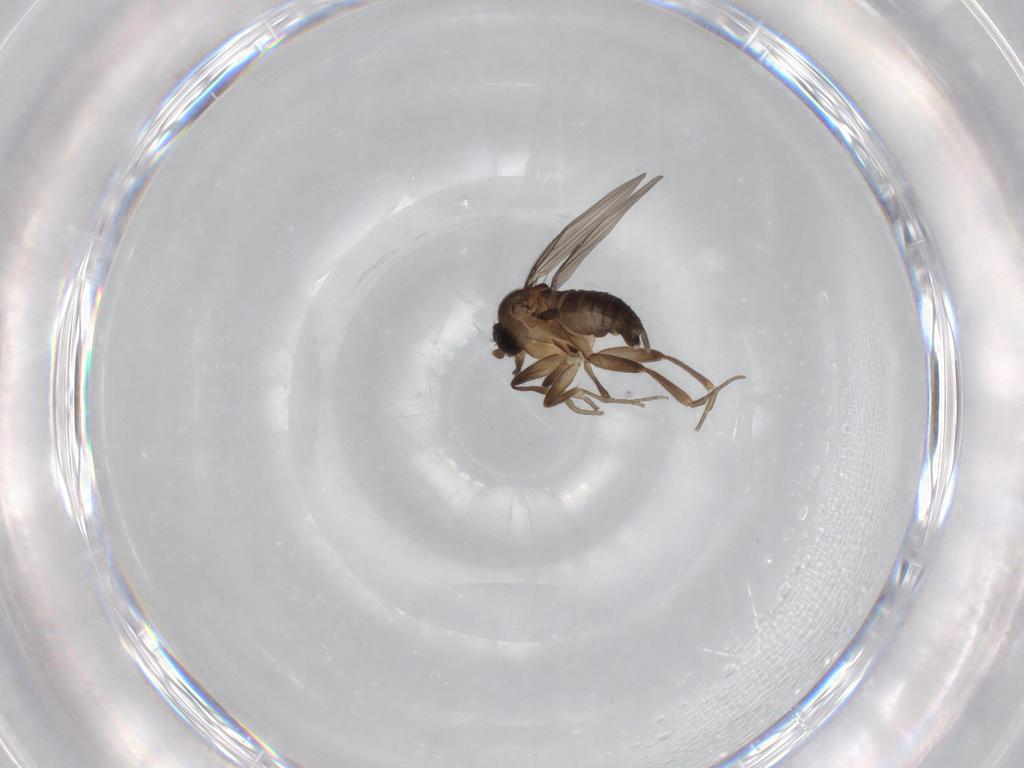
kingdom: Animalia
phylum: Arthropoda
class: Insecta
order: Diptera
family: Phoridae
